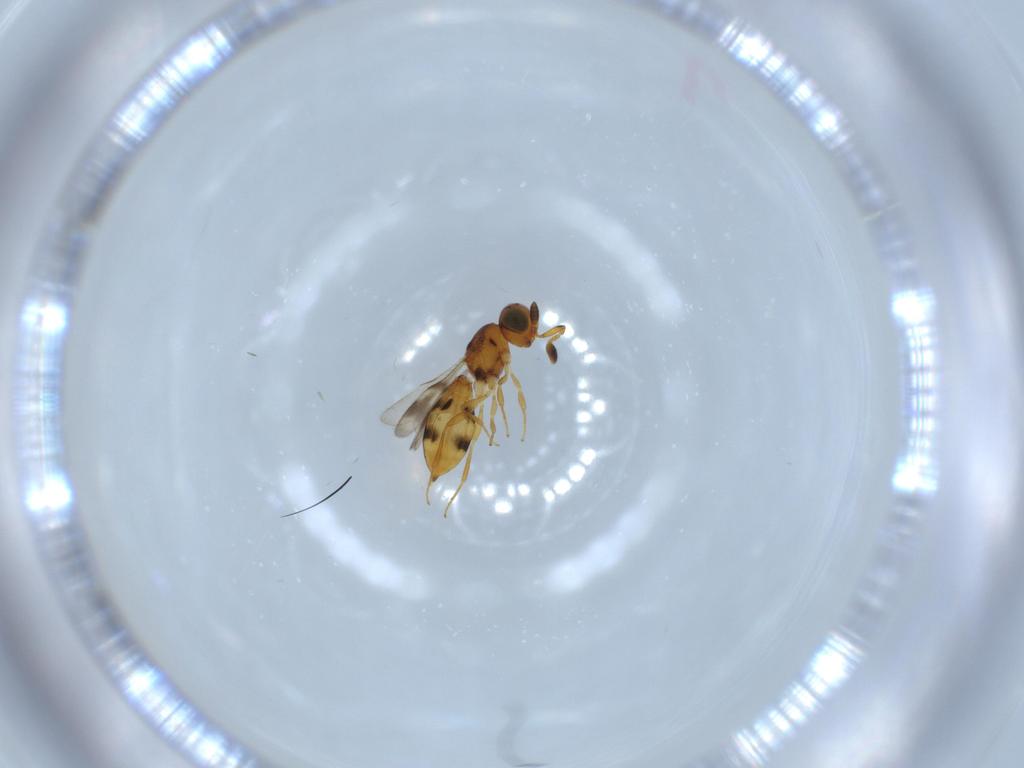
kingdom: Animalia
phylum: Arthropoda
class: Insecta
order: Hymenoptera
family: Scelionidae
